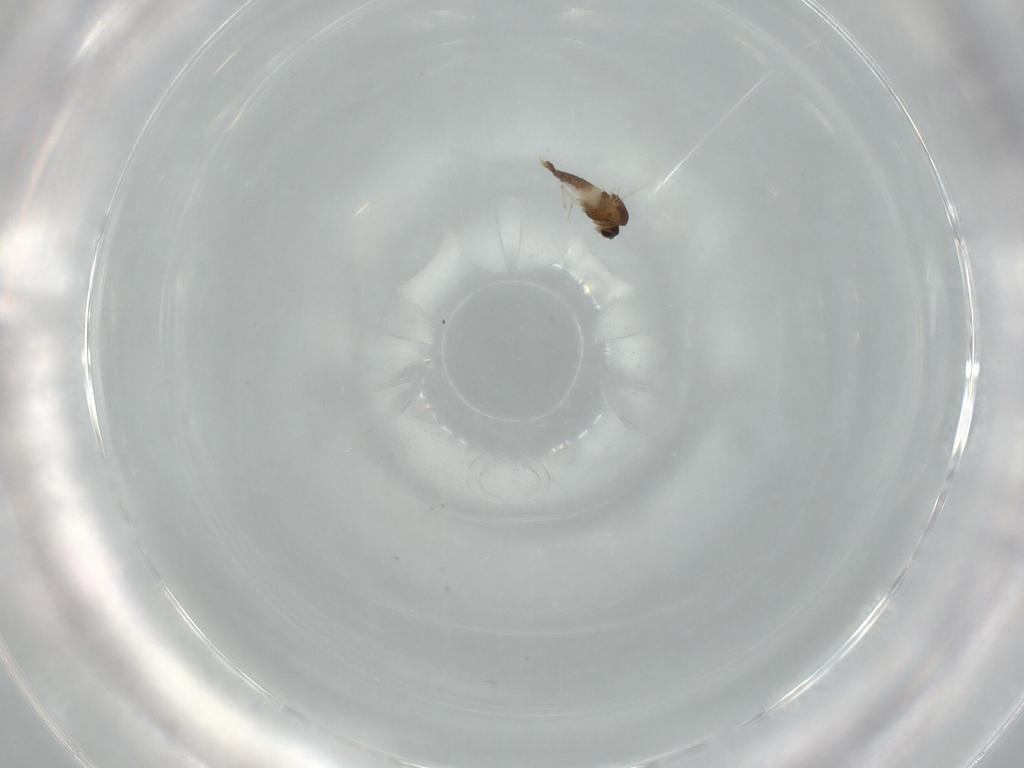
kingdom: Animalia
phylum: Arthropoda
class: Insecta
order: Diptera
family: Chironomidae
